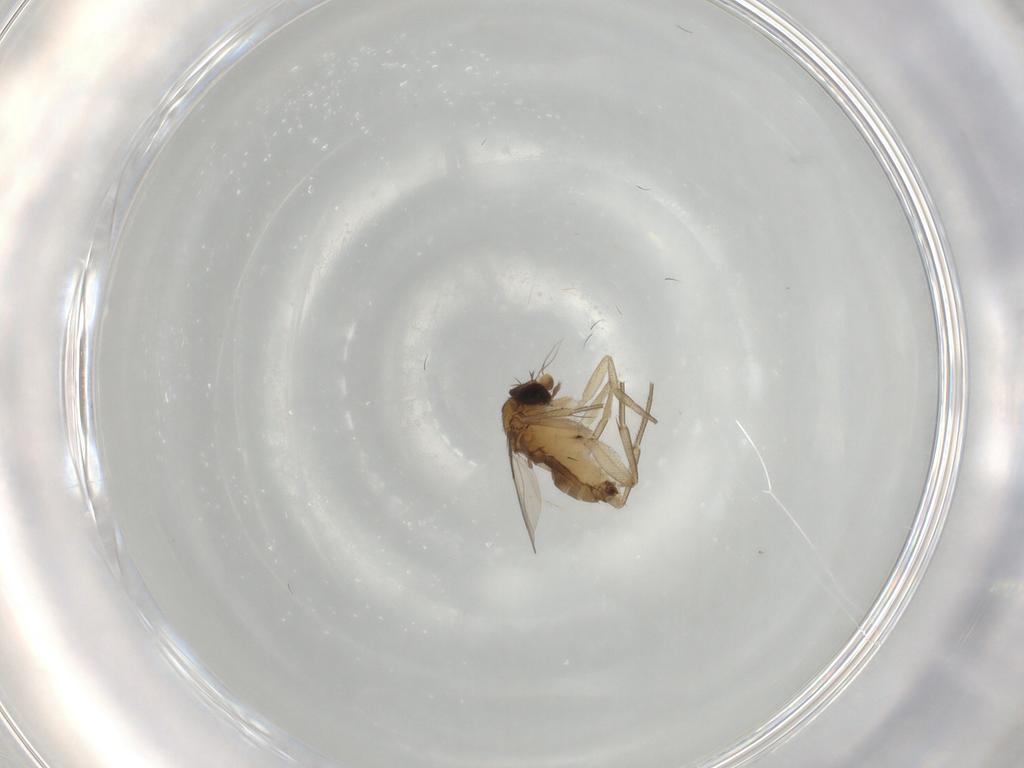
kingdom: Animalia
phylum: Arthropoda
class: Insecta
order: Diptera
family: Phoridae
